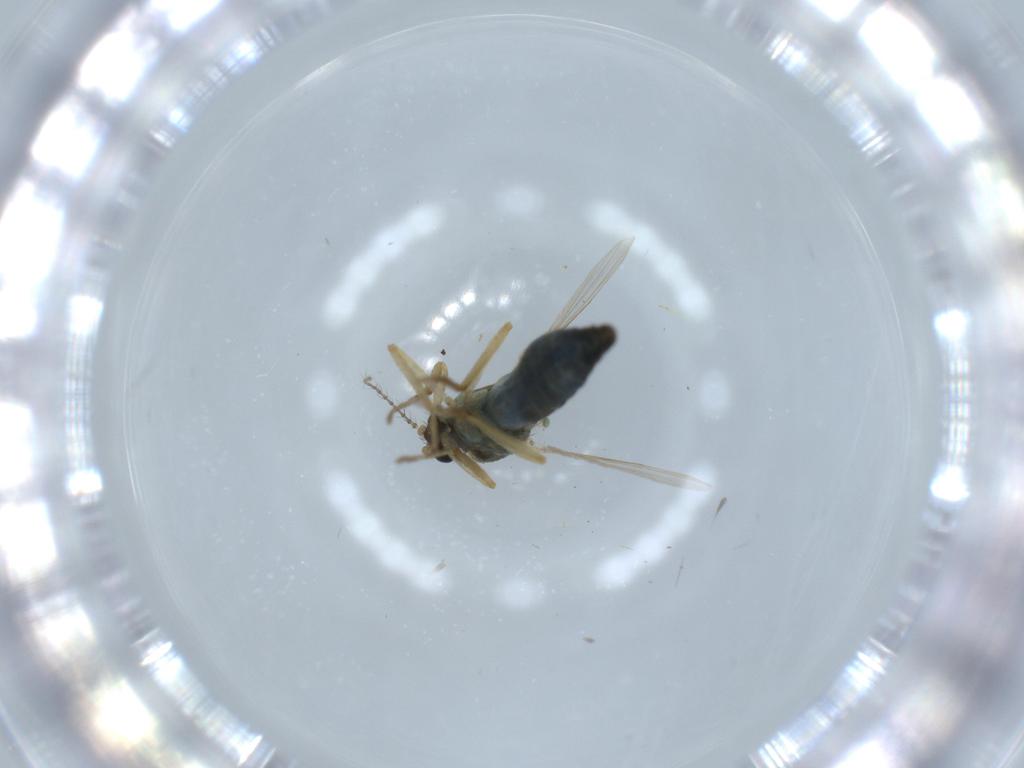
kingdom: Animalia
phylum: Arthropoda
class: Insecta
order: Diptera
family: Ceratopogonidae
